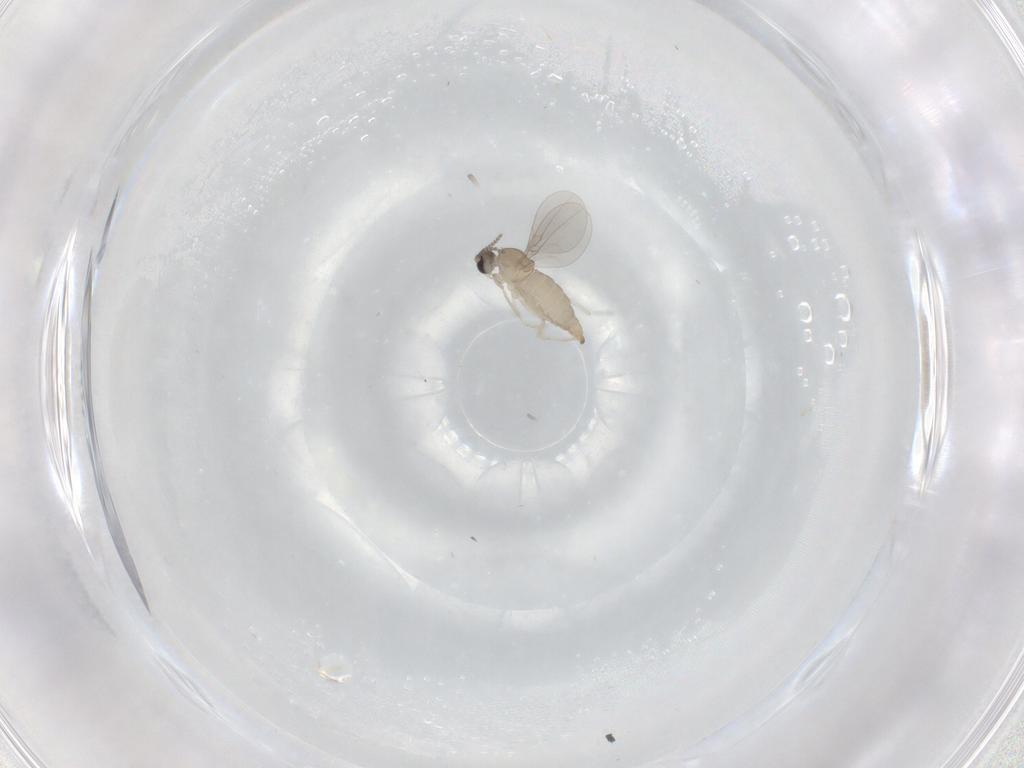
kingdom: Animalia
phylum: Arthropoda
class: Insecta
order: Diptera
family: Cecidomyiidae
